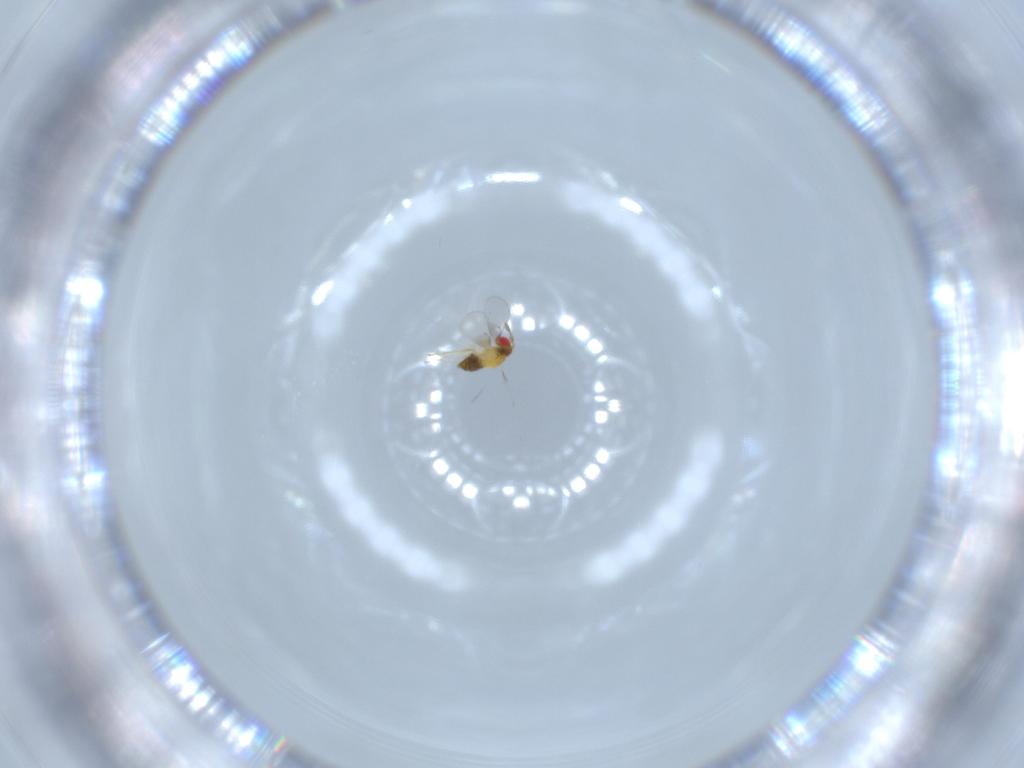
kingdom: Animalia
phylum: Arthropoda
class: Insecta
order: Hymenoptera
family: Trichogrammatidae
